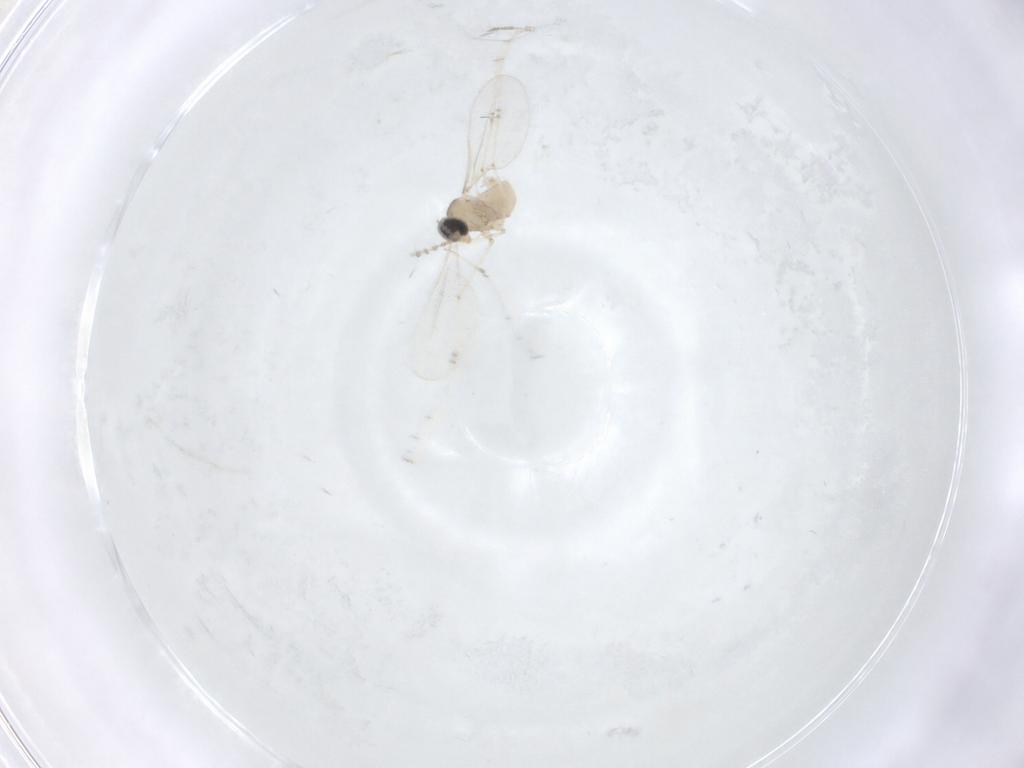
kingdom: Animalia
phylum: Arthropoda
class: Insecta
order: Diptera
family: Cecidomyiidae
